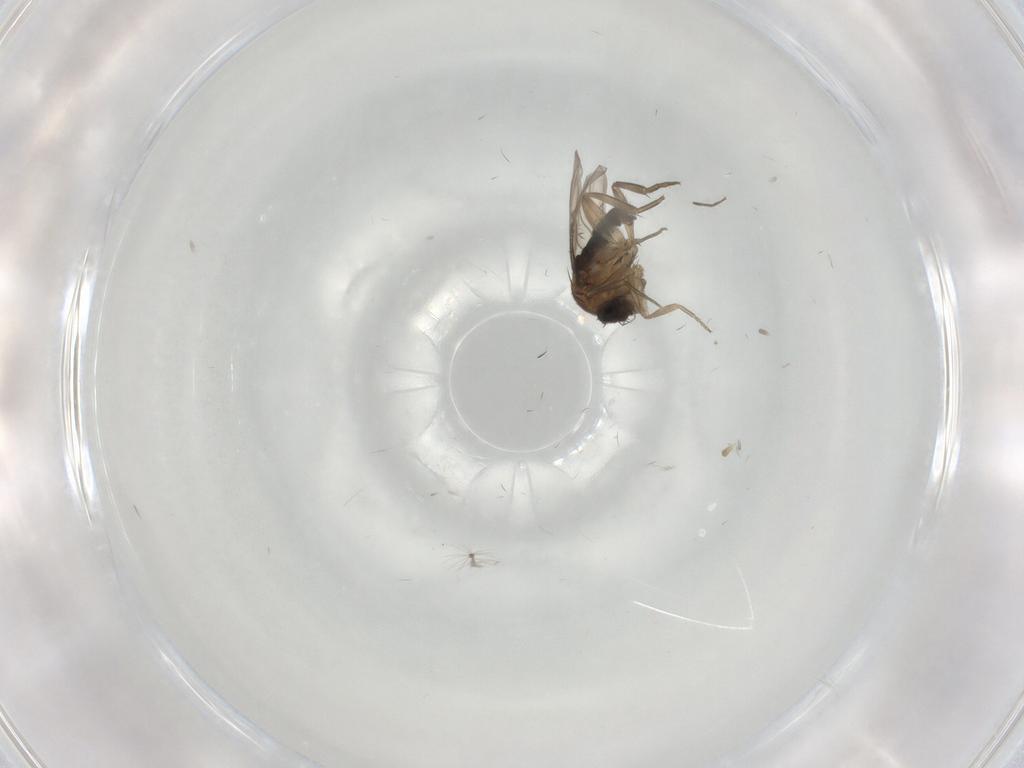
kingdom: Animalia
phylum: Arthropoda
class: Insecta
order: Diptera
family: Phoridae
